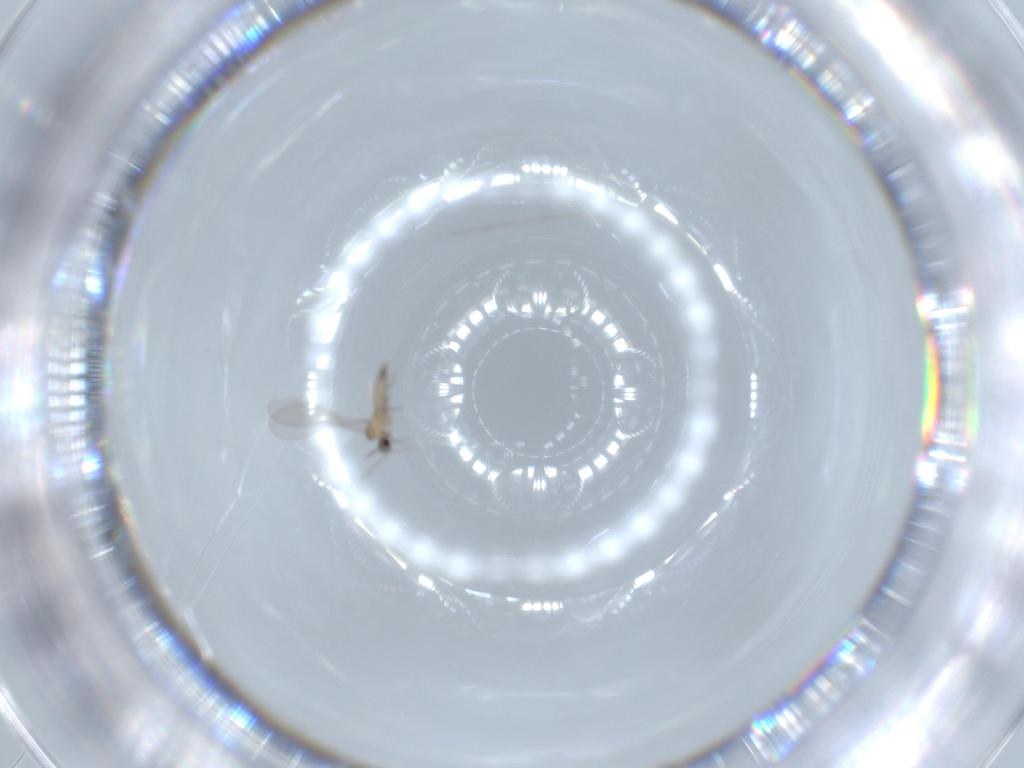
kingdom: Animalia
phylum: Arthropoda
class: Insecta
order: Diptera
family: Cecidomyiidae
